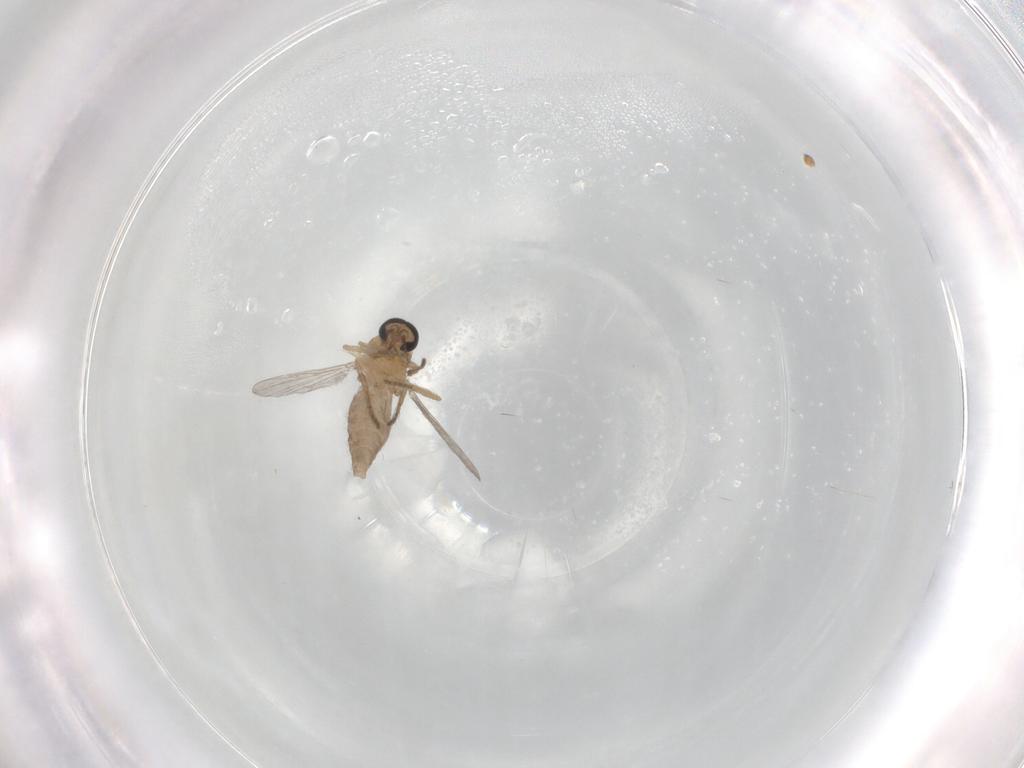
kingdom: Animalia
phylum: Arthropoda
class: Insecta
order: Diptera
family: Ceratopogonidae
